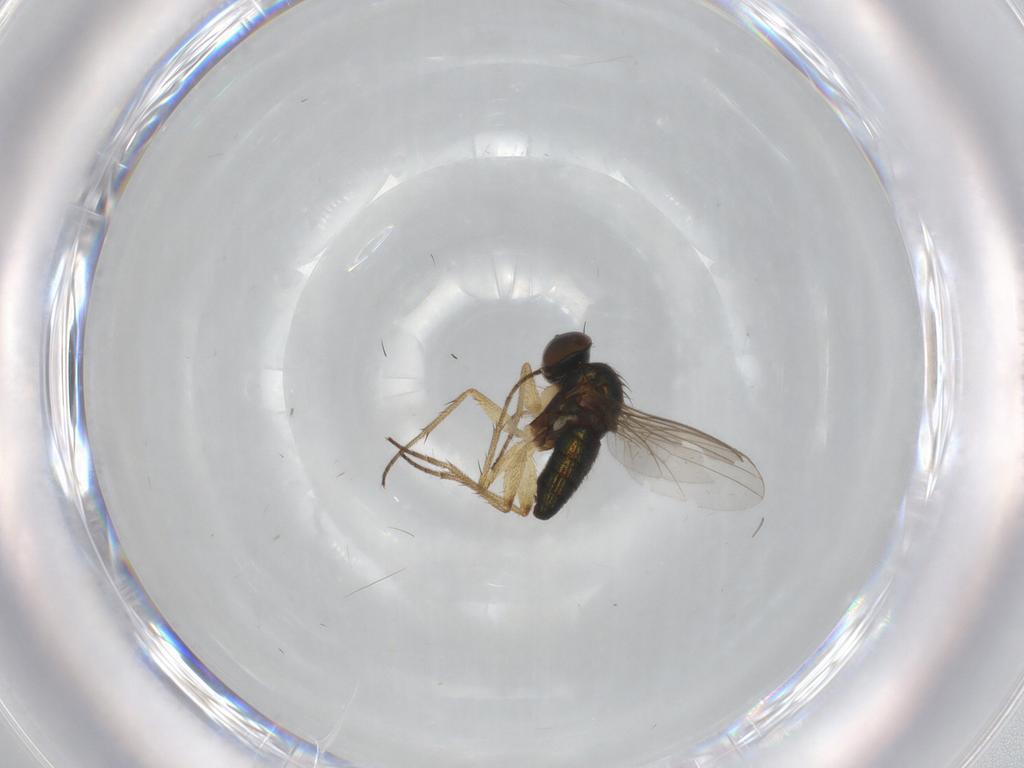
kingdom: Animalia
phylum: Arthropoda
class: Insecta
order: Diptera
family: Dolichopodidae
